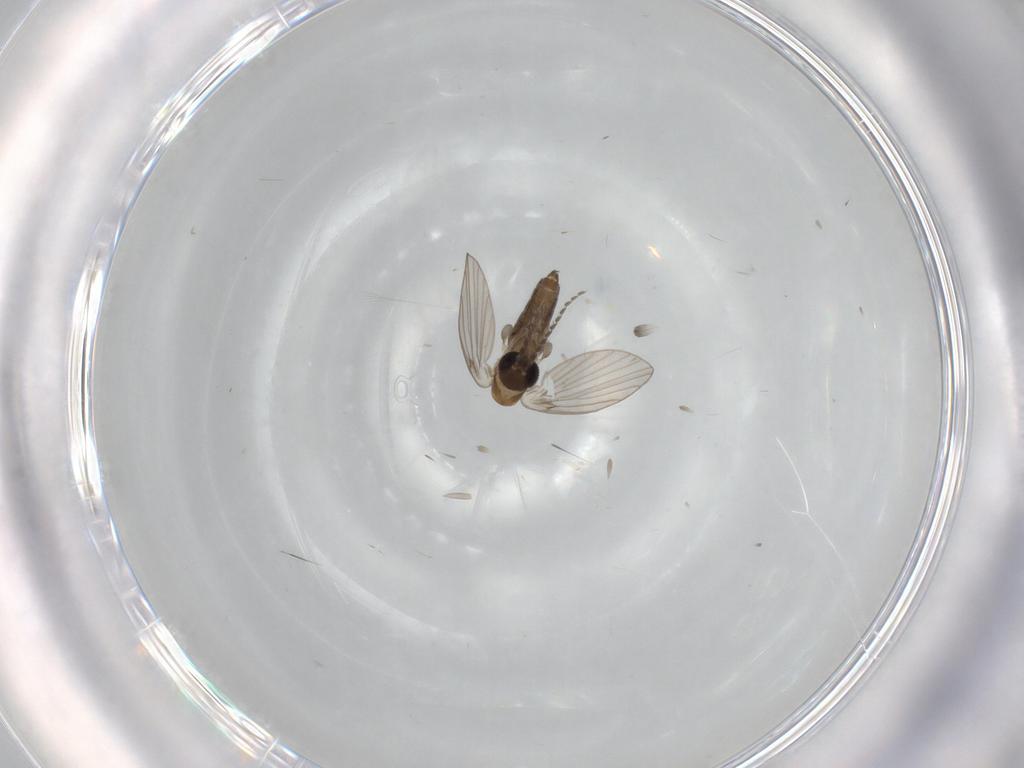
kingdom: Animalia
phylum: Arthropoda
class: Insecta
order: Diptera
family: Psychodidae
